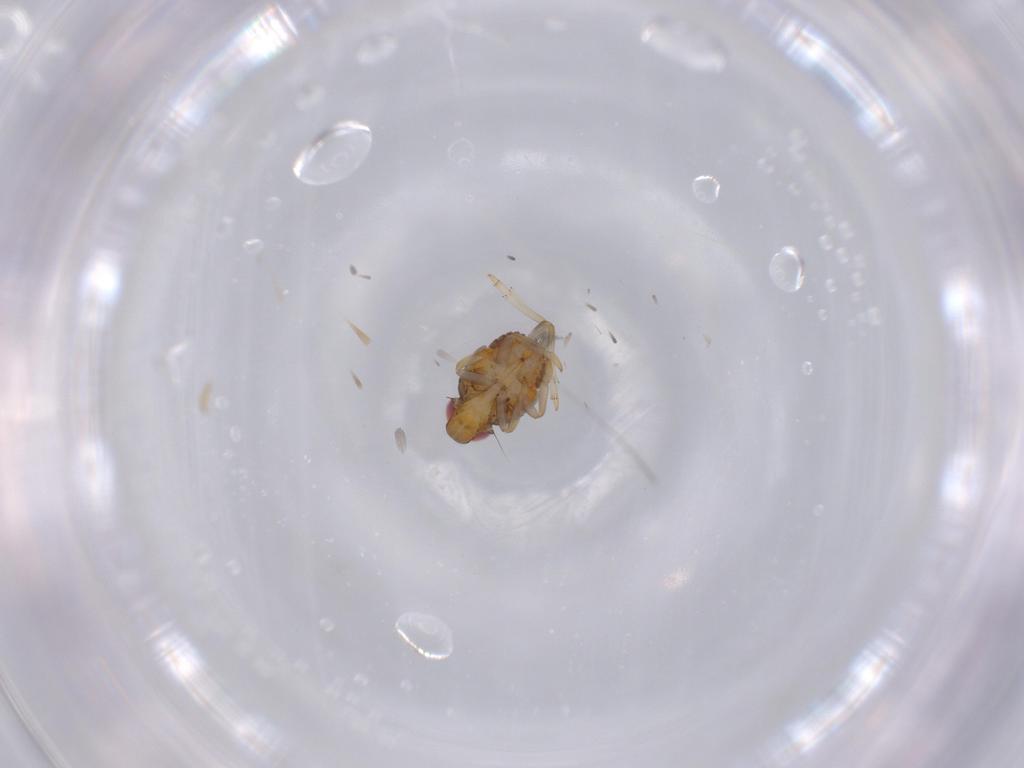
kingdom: Animalia
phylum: Arthropoda
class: Insecta
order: Hemiptera
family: Issidae
